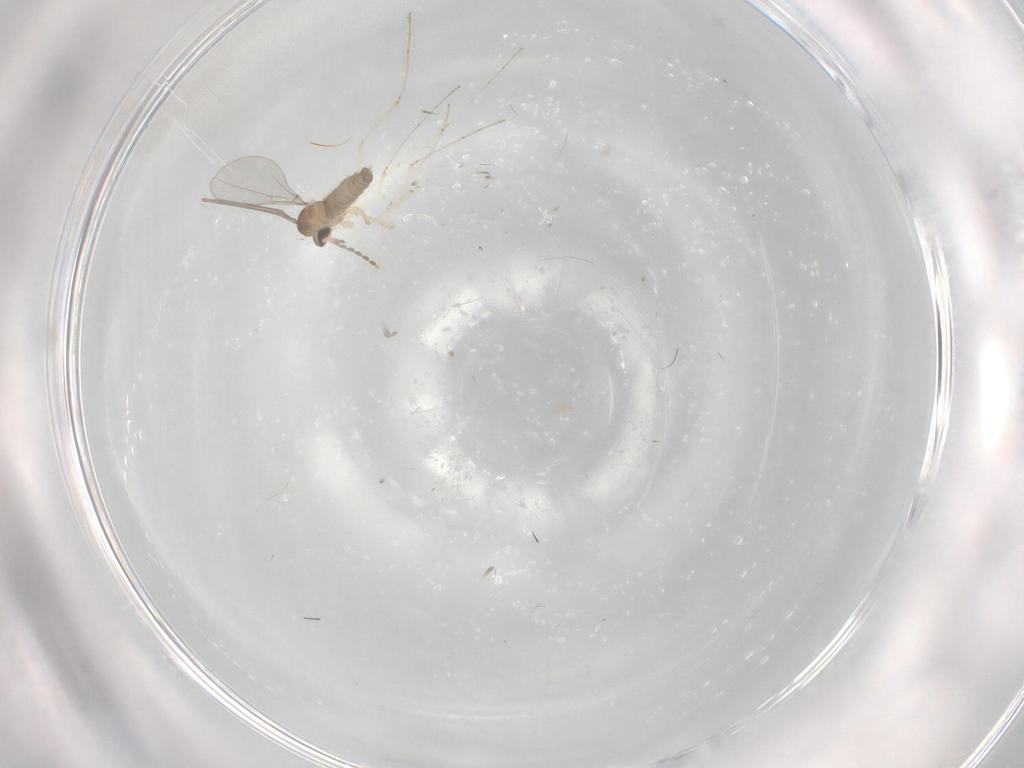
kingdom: Animalia
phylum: Arthropoda
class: Insecta
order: Diptera
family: Cecidomyiidae
